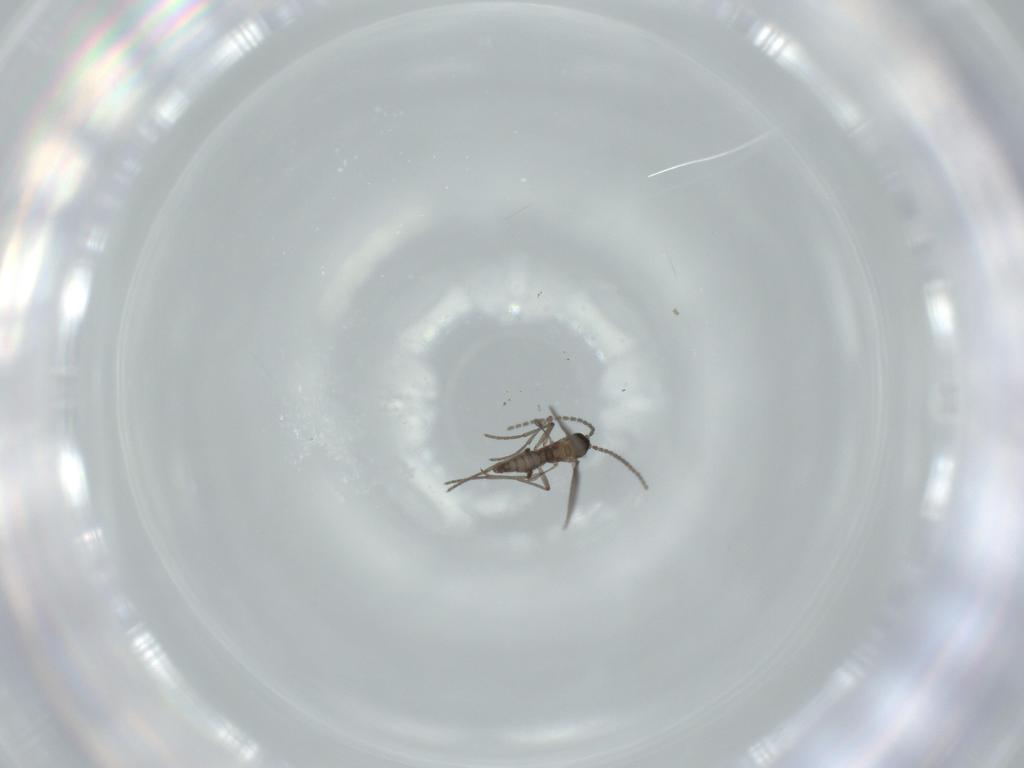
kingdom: Animalia
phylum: Arthropoda
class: Insecta
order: Diptera
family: Sciaridae
